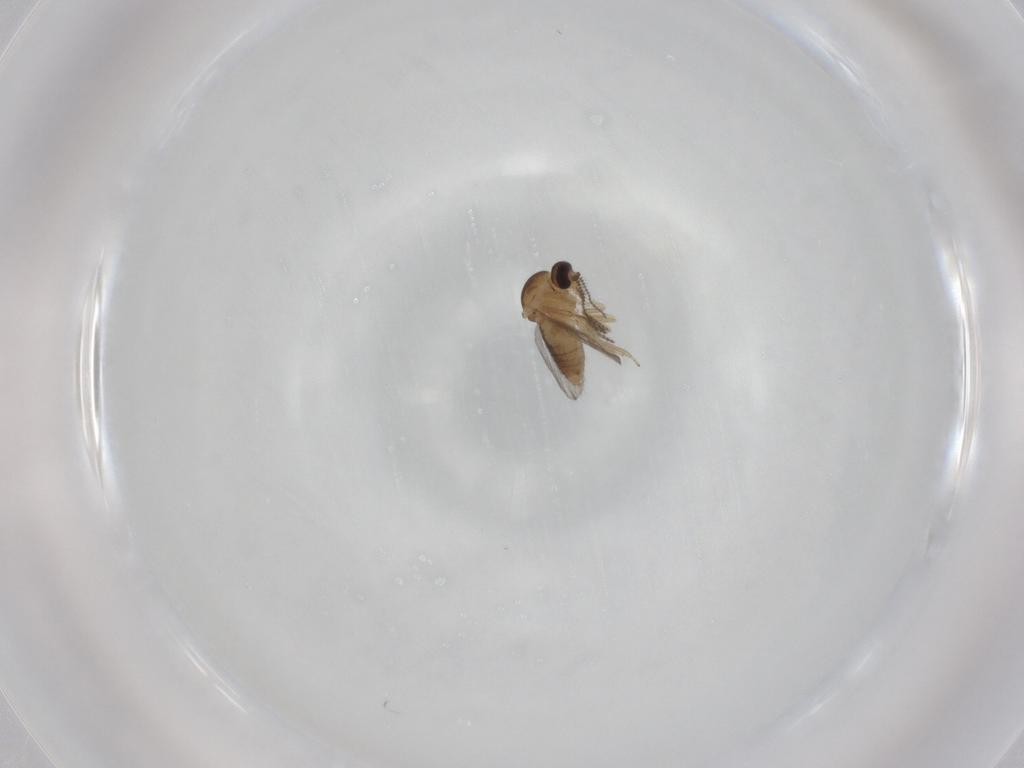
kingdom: Animalia
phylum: Arthropoda
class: Insecta
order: Diptera
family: Ceratopogonidae
